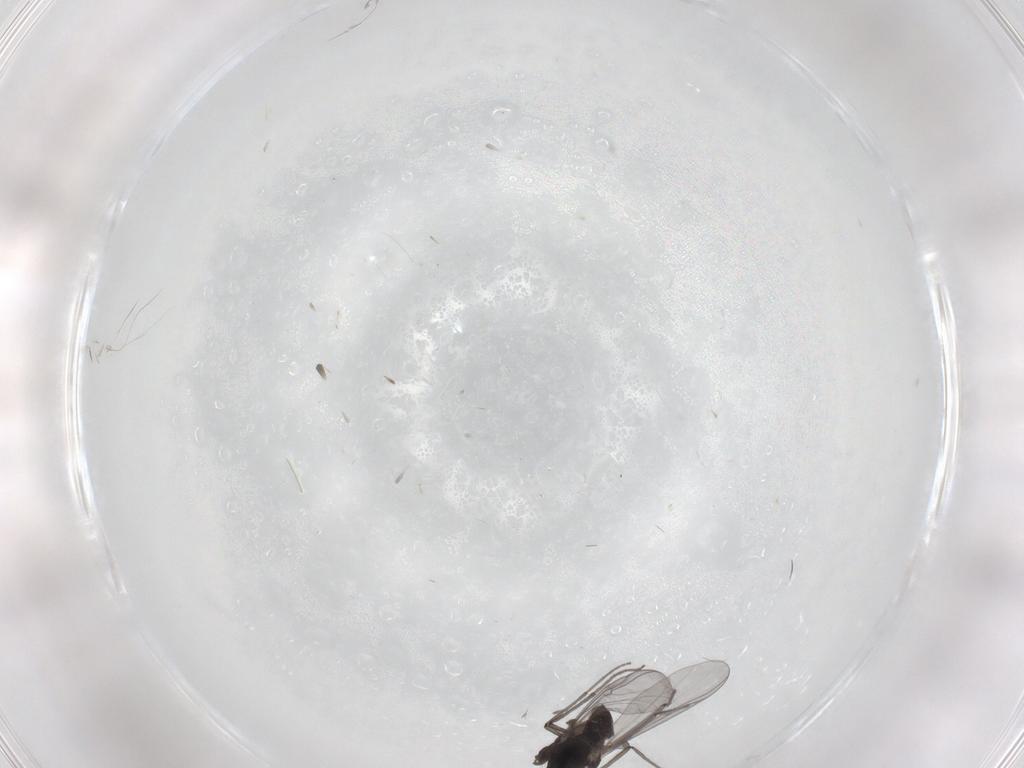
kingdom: Animalia
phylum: Arthropoda
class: Insecta
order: Diptera
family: Chironomidae
